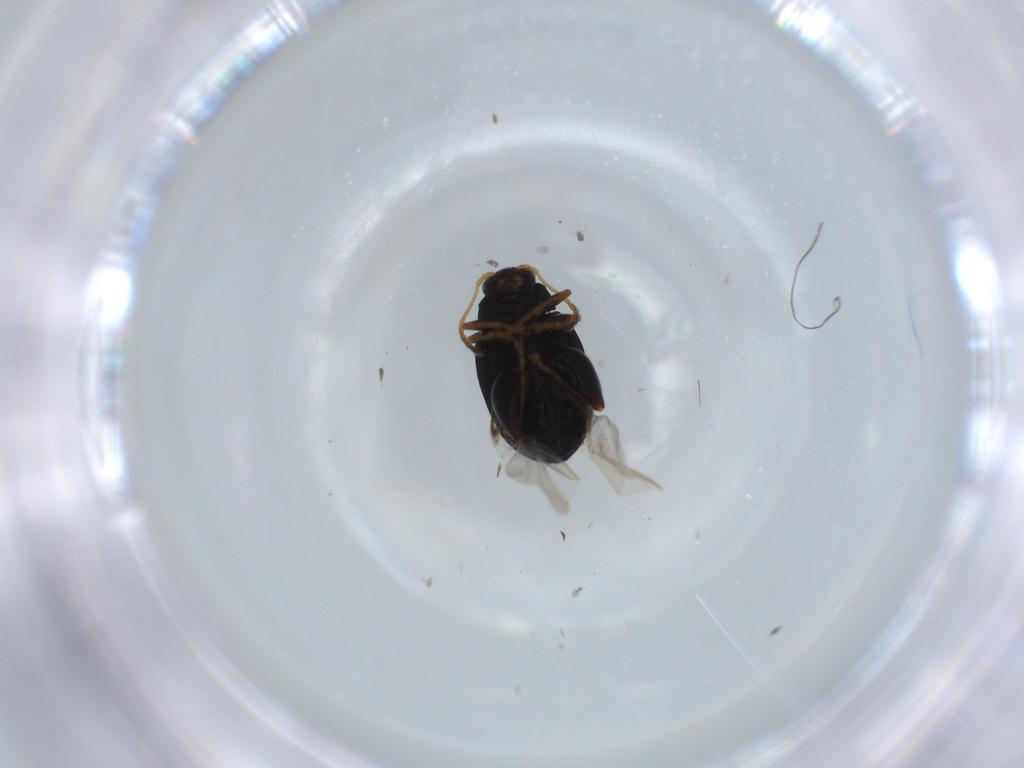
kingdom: Animalia
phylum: Arthropoda
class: Insecta
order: Coleoptera
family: Chrysomelidae
